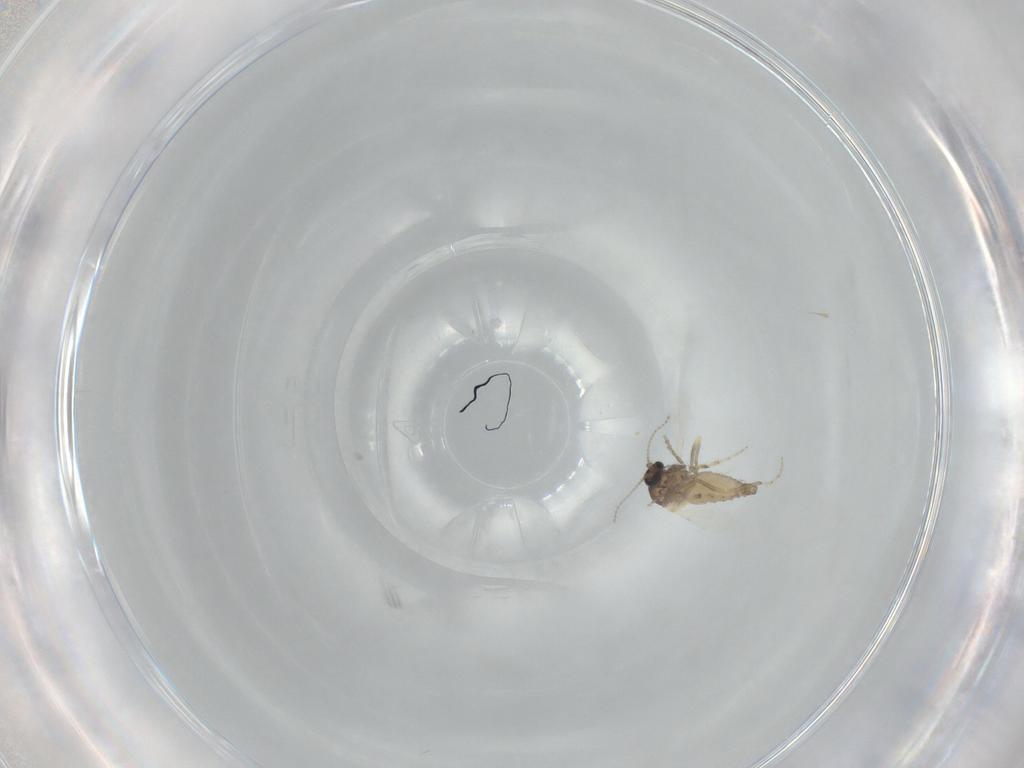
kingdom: Animalia
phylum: Arthropoda
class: Insecta
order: Diptera
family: Ceratopogonidae
